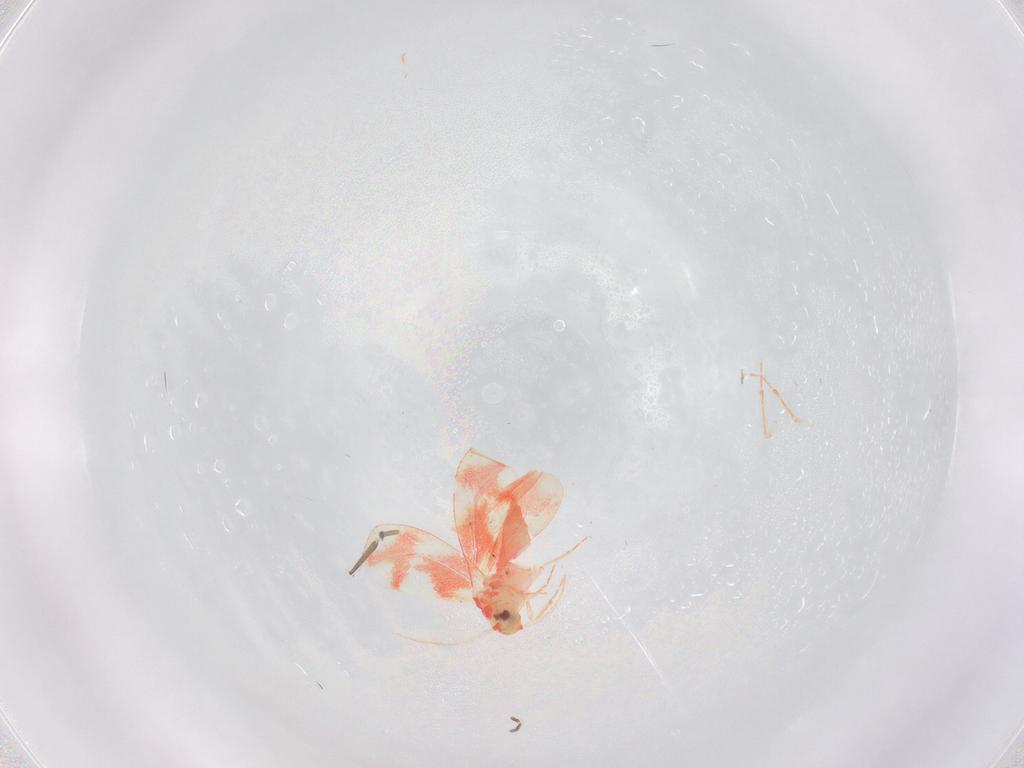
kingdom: Animalia
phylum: Arthropoda
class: Insecta
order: Hemiptera
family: Aleyrodidae
